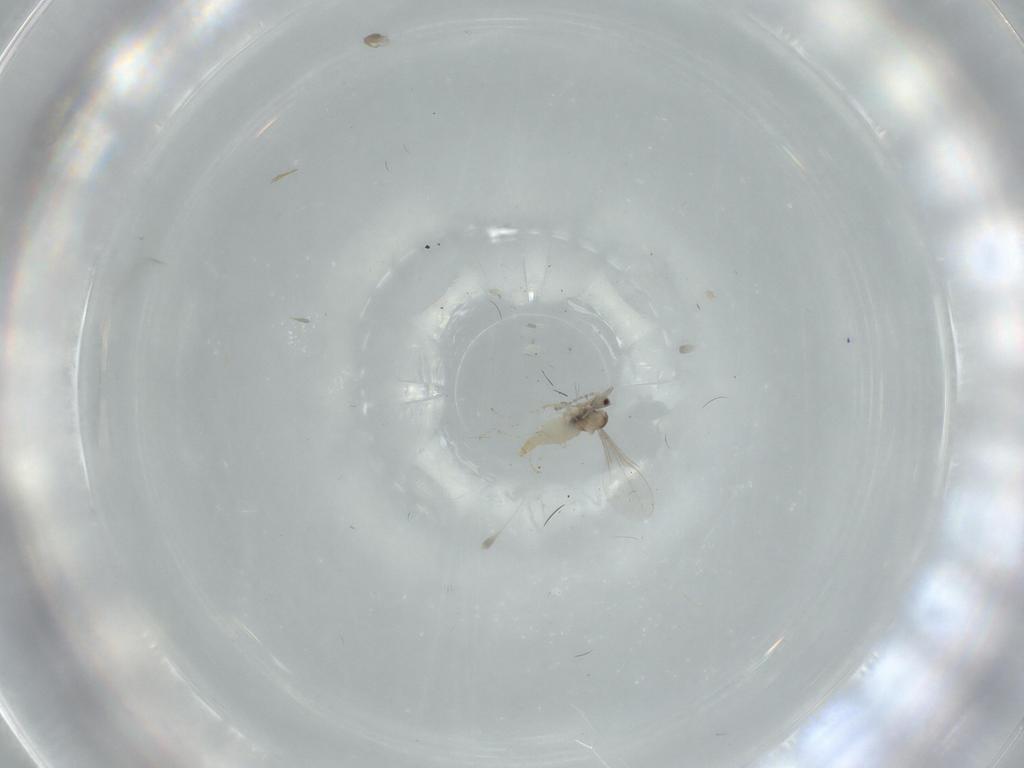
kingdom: Animalia
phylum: Arthropoda
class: Insecta
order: Diptera
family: Cecidomyiidae
